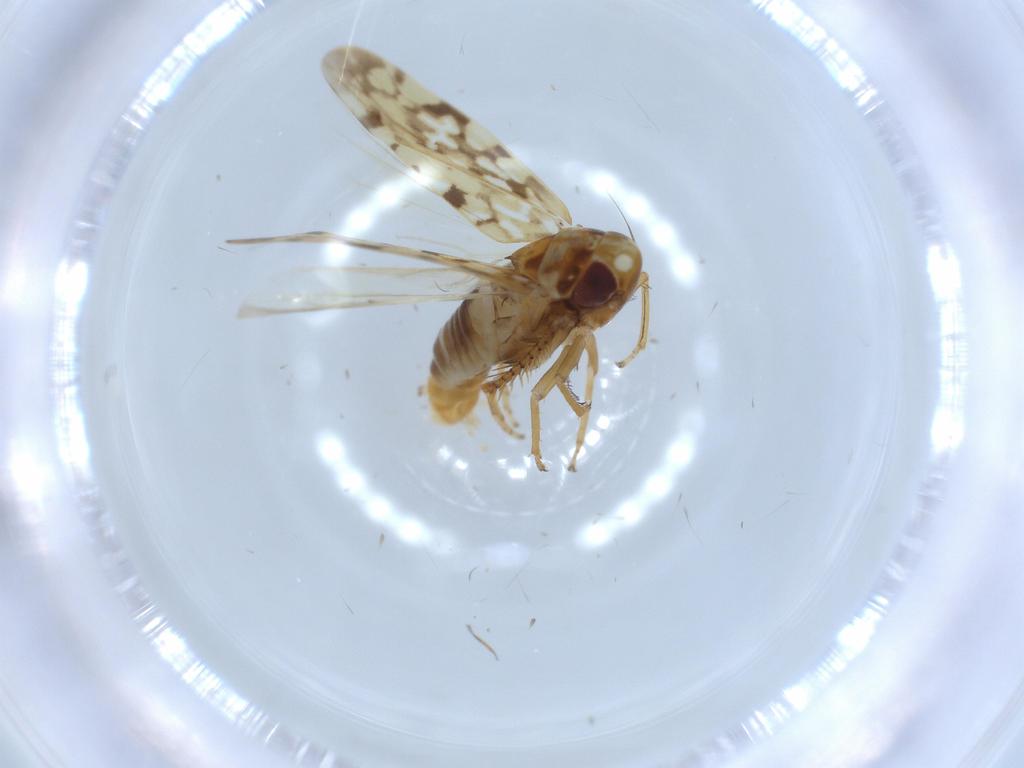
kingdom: Animalia
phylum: Arthropoda
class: Insecta
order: Hemiptera
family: Cicadellidae
